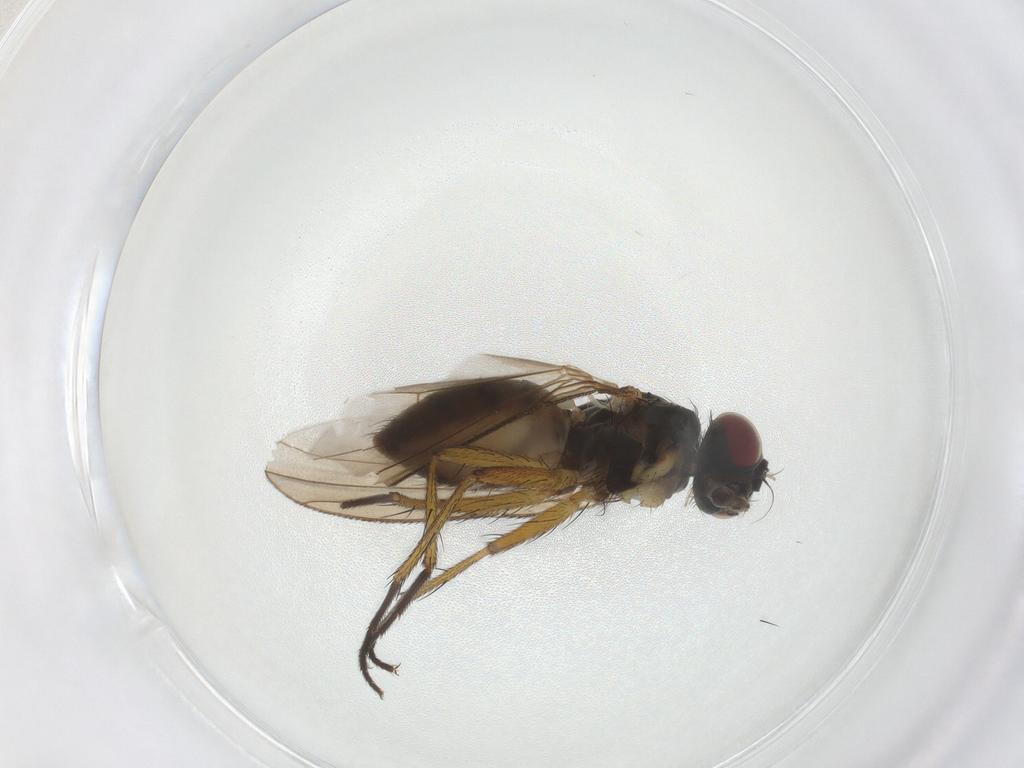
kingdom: Animalia
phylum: Arthropoda
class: Insecta
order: Diptera
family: Muscidae
